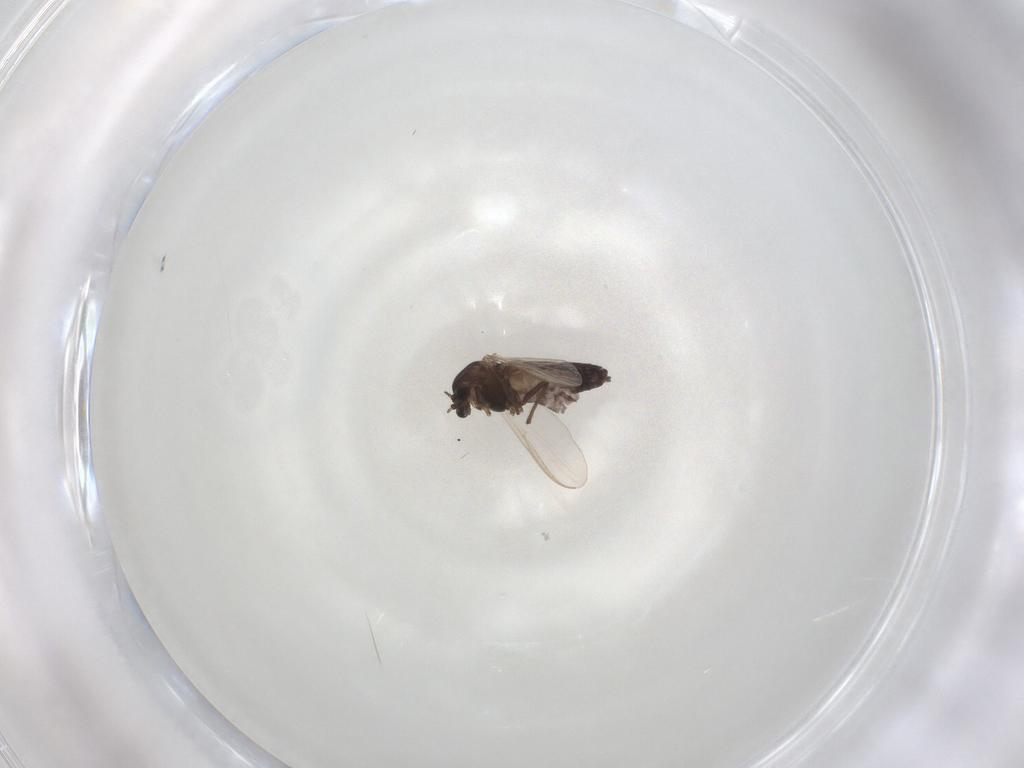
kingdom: Animalia
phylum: Arthropoda
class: Insecta
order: Diptera
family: Chironomidae
